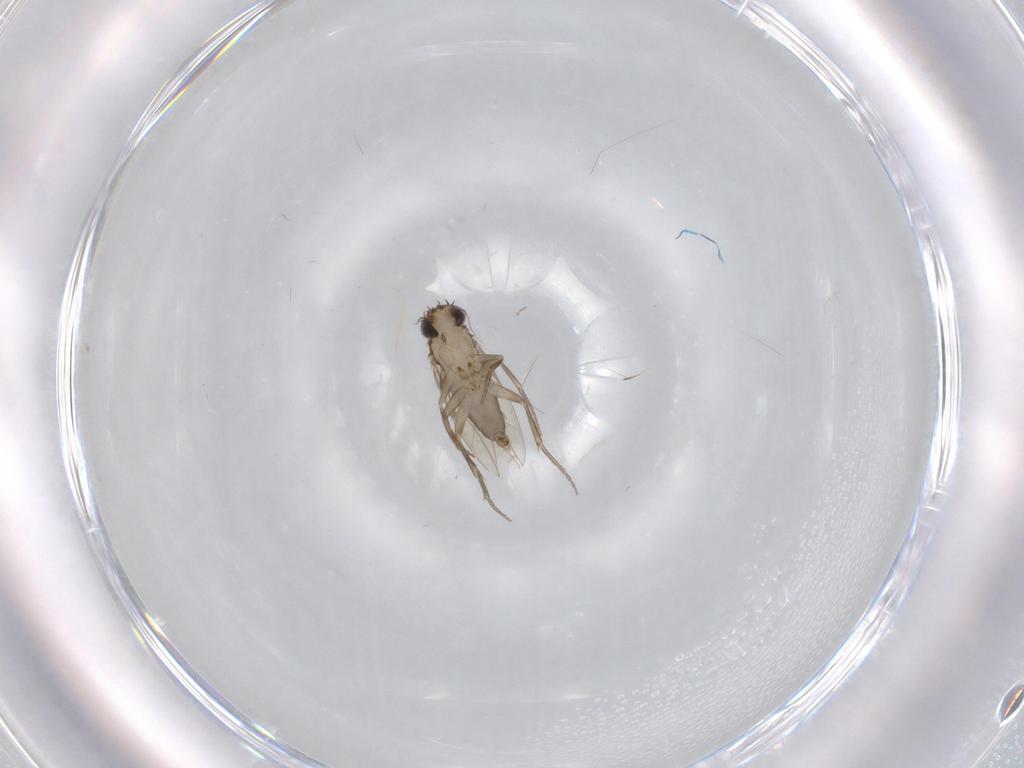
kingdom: Animalia
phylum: Arthropoda
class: Insecta
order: Diptera
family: Phoridae
